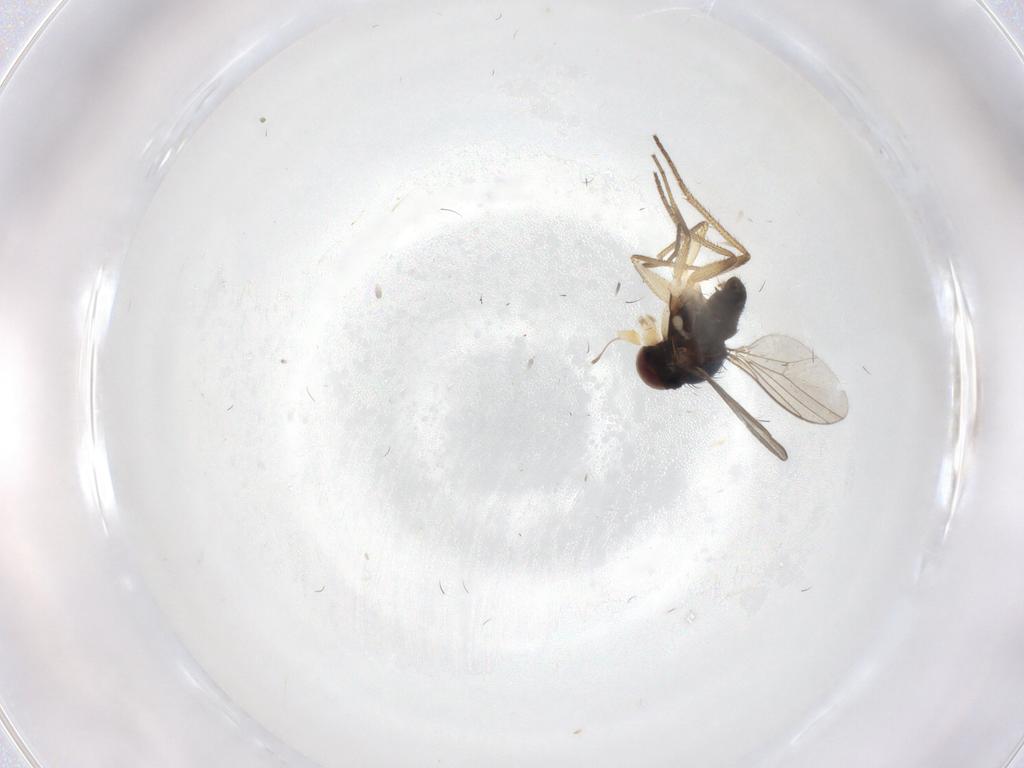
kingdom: Animalia
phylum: Arthropoda
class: Insecta
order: Diptera
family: Dolichopodidae
